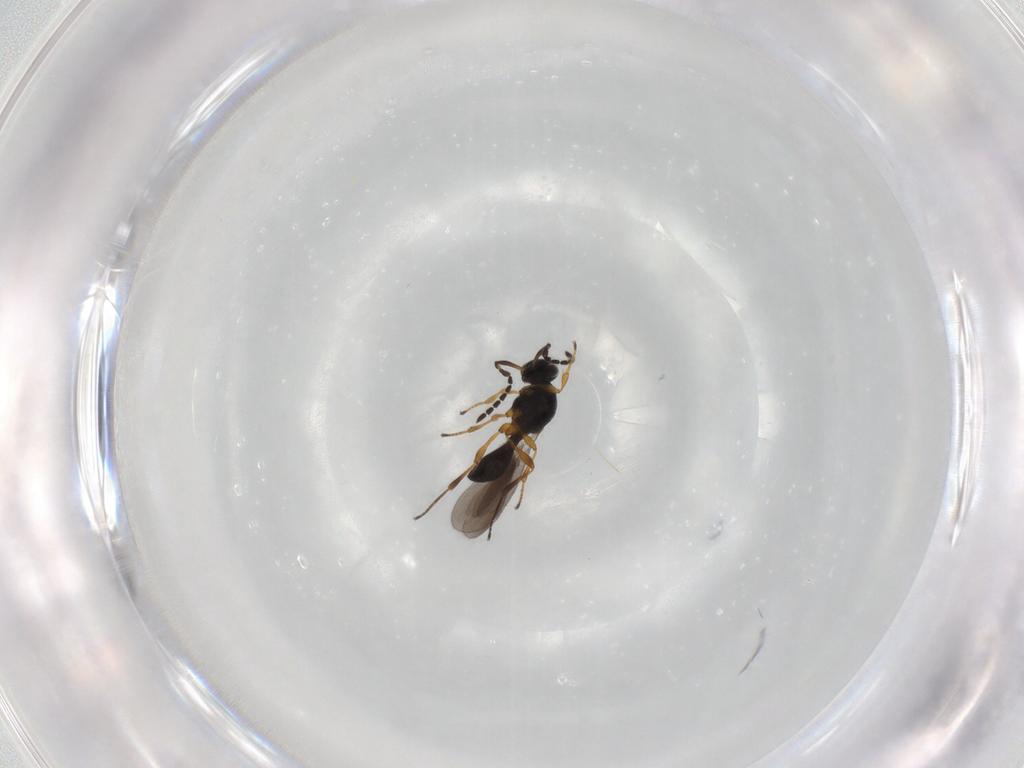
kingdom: Animalia
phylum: Arthropoda
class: Insecta
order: Hymenoptera
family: Platygastridae
